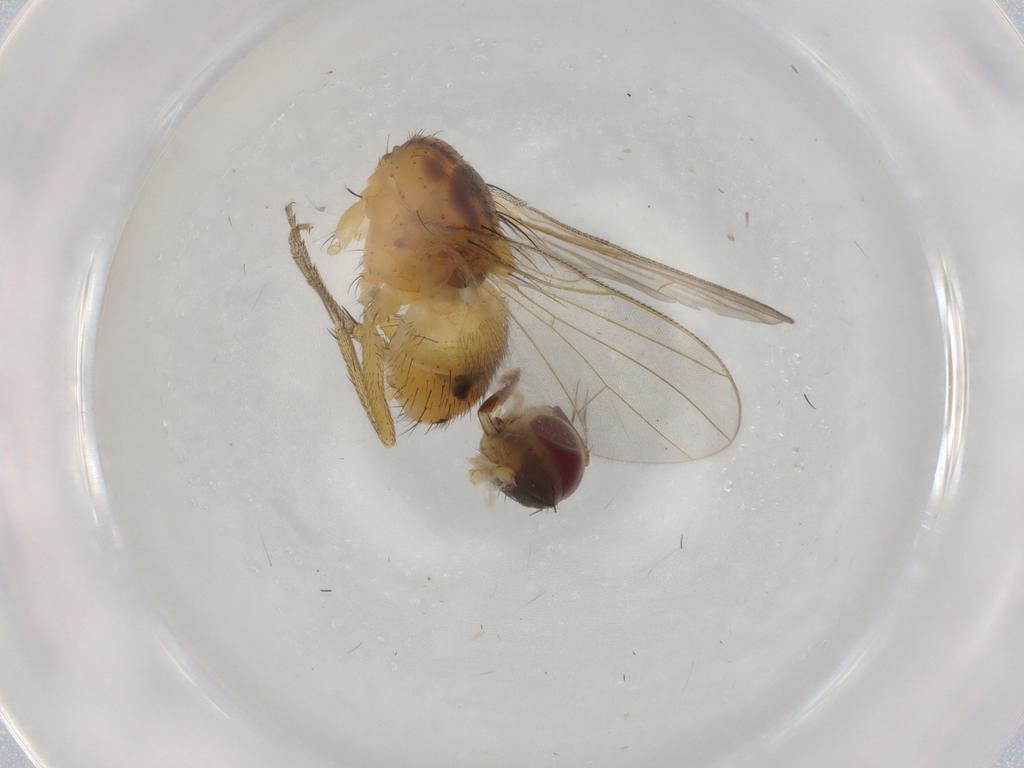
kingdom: Animalia
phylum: Arthropoda
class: Insecta
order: Diptera
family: Muscidae
